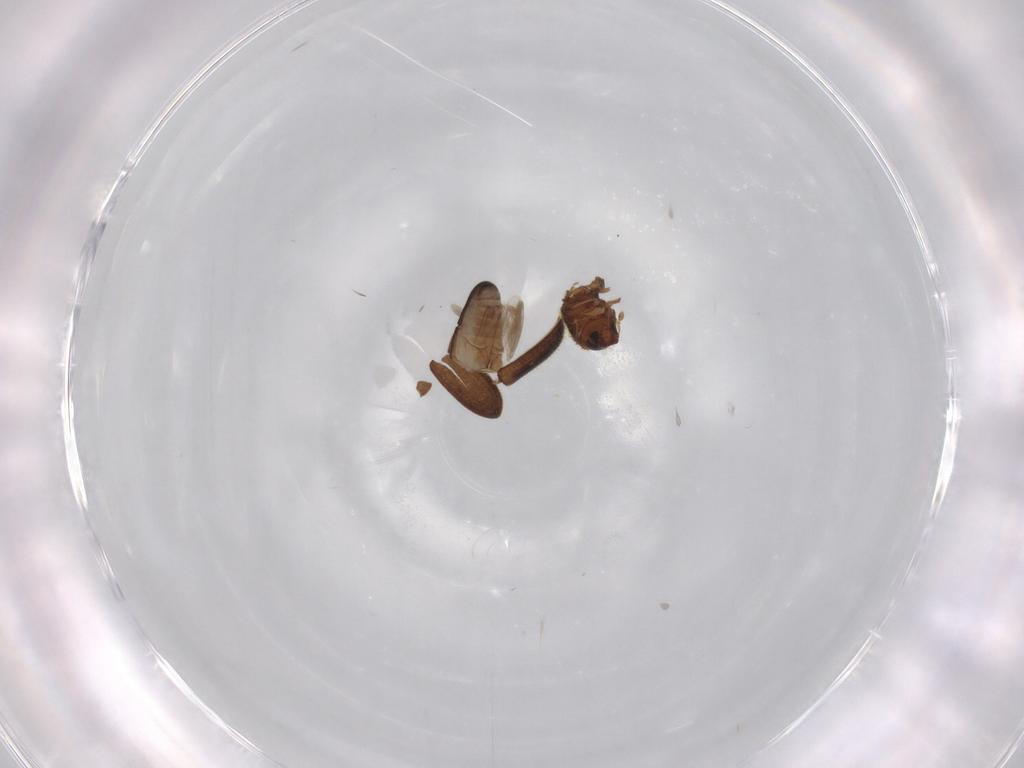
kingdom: Animalia
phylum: Arthropoda
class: Insecta
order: Coleoptera
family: Curculionidae
